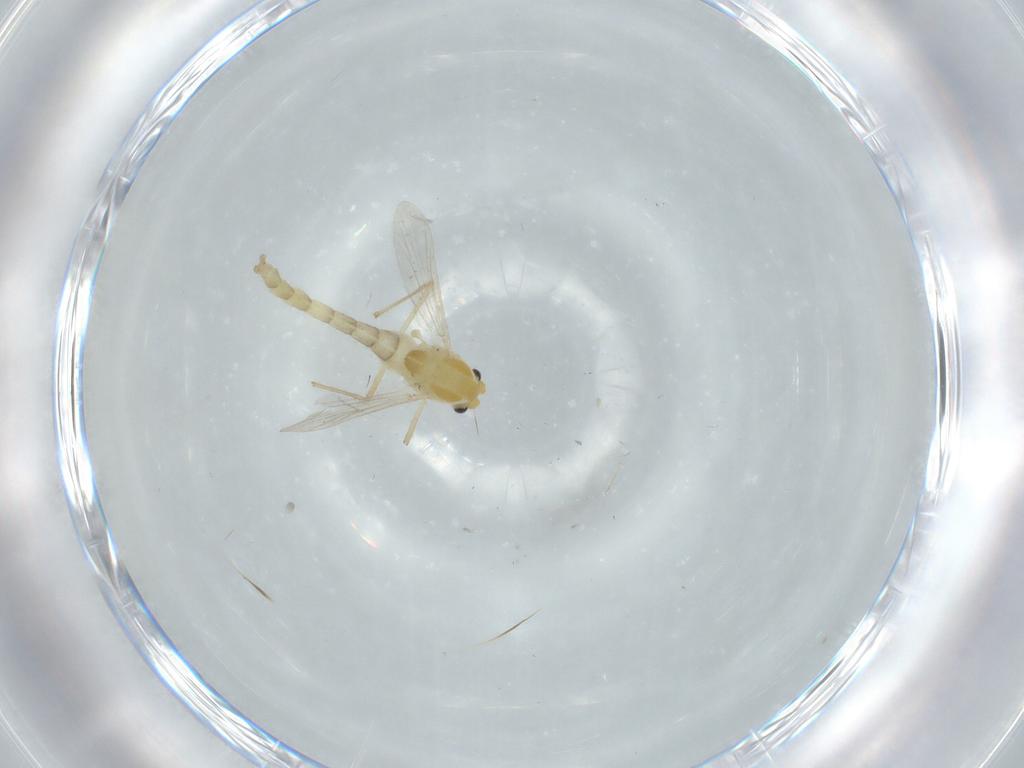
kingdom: Animalia
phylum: Arthropoda
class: Insecta
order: Diptera
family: Chironomidae
